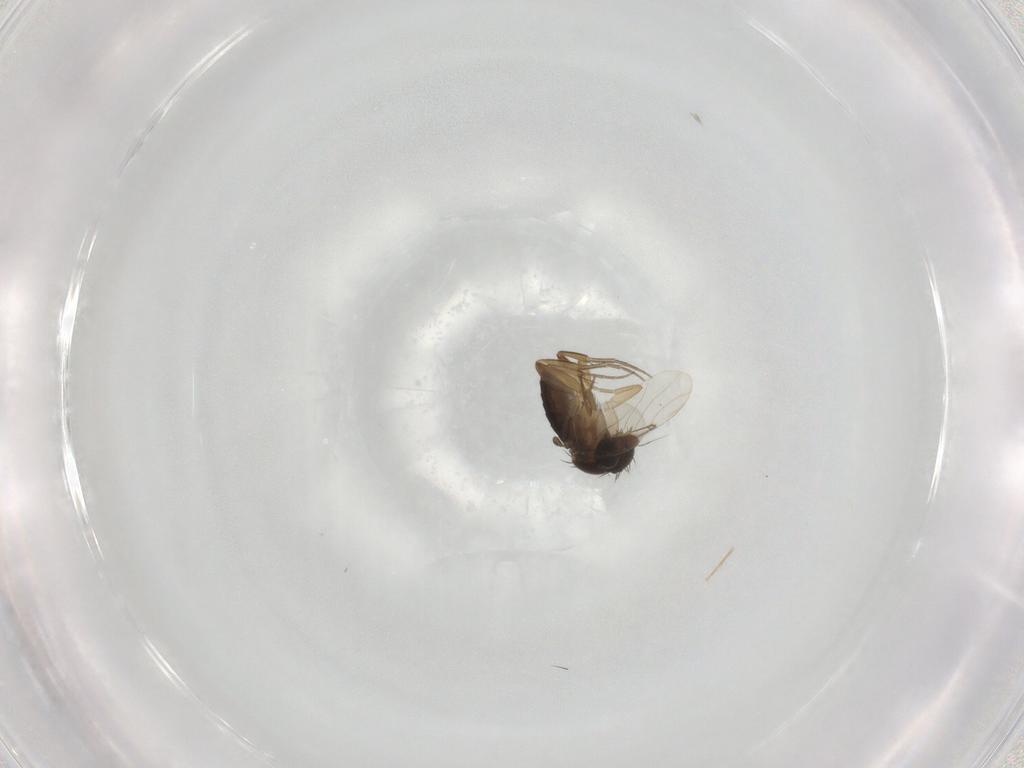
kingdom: Animalia
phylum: Arthropoda
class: Insecta
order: Diptera
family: Chironomidae
